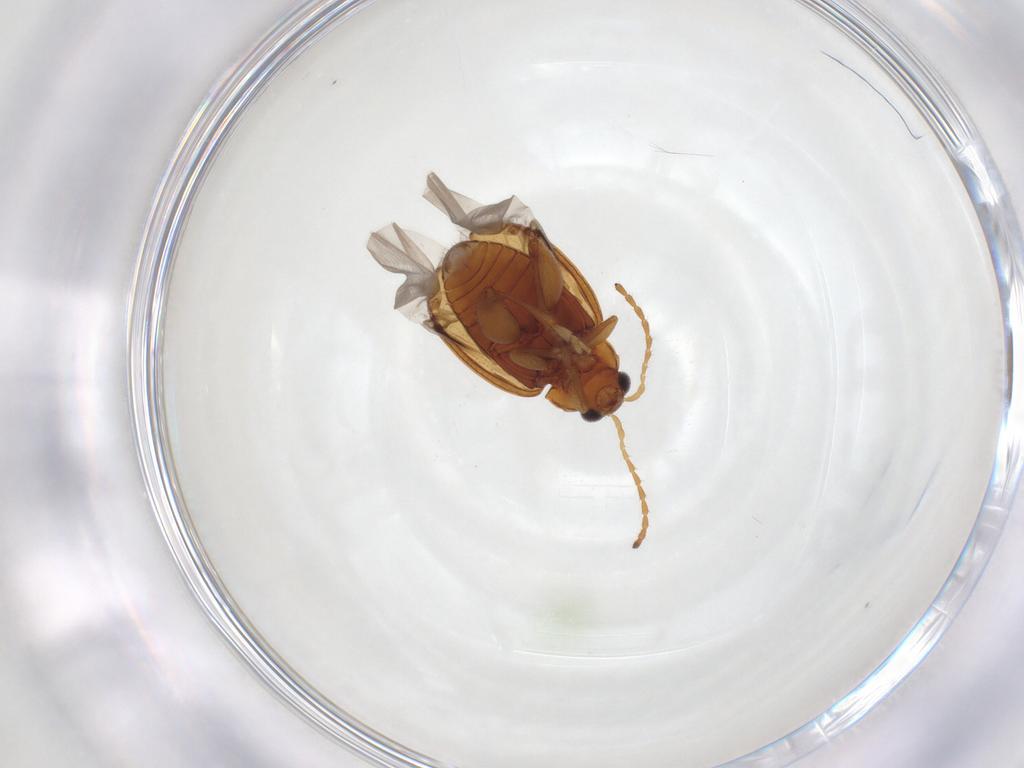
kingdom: Animalia
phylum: Arthropoda
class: Insecta
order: Coleoptera
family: Chrysomelidae
